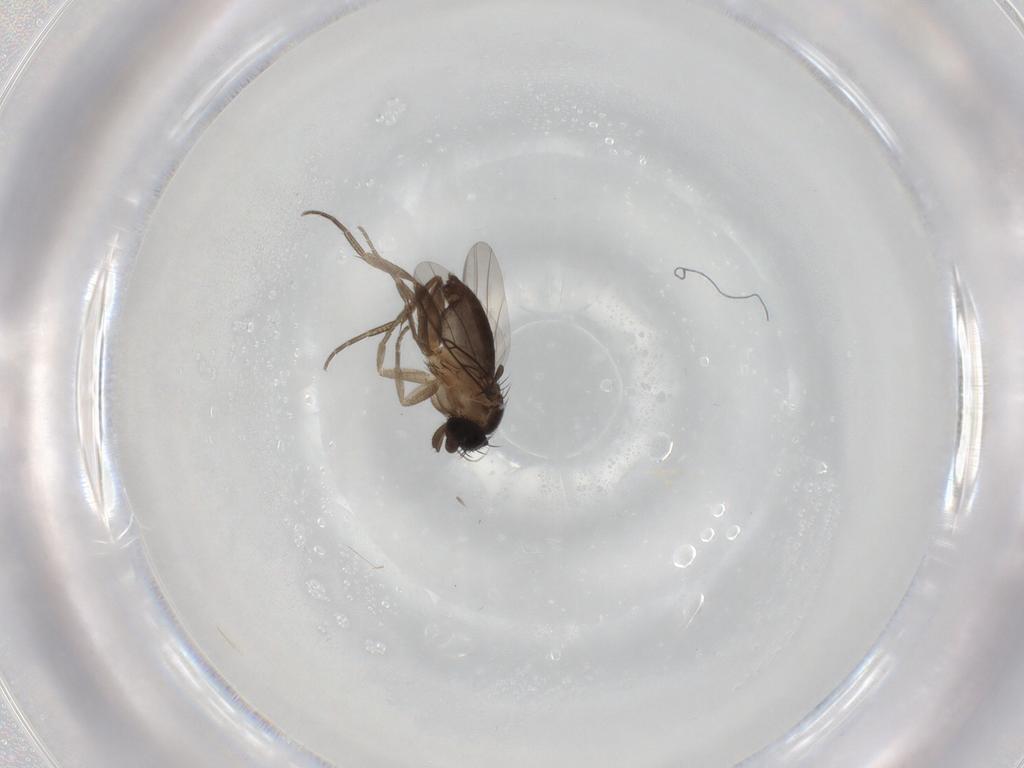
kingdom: Animalia
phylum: Arthropoda
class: Insecta
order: Diptera
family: Phoridae
